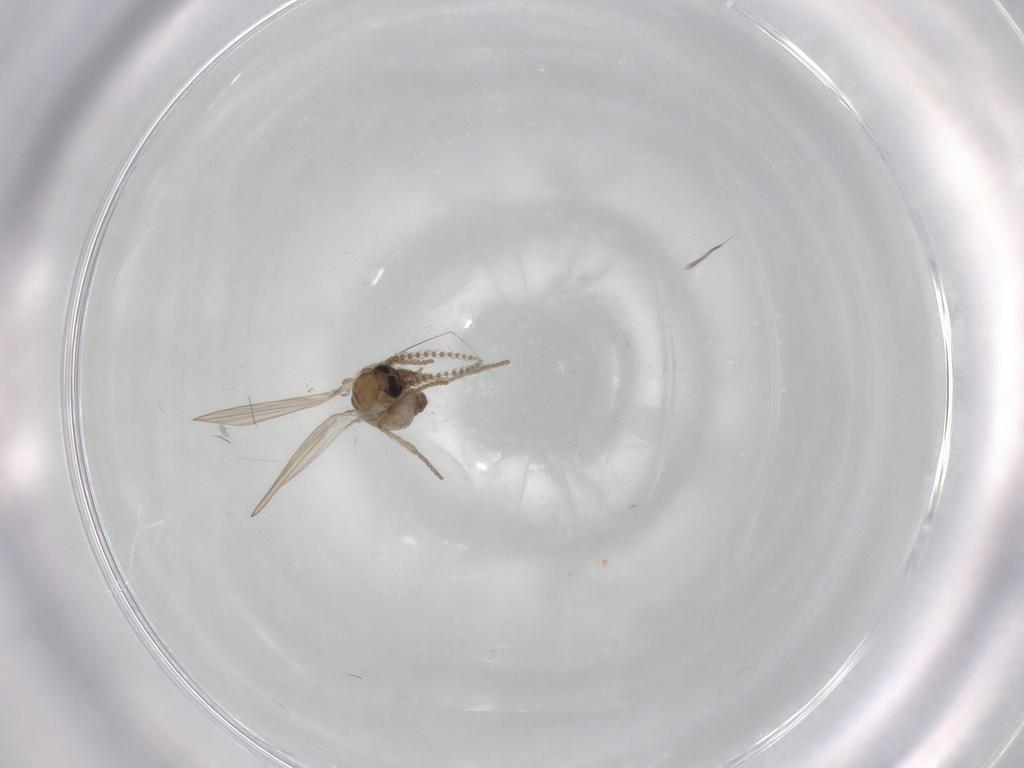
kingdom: Animalia
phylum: Arthropoda
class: Insecta
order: Diptera
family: Psychodidae
